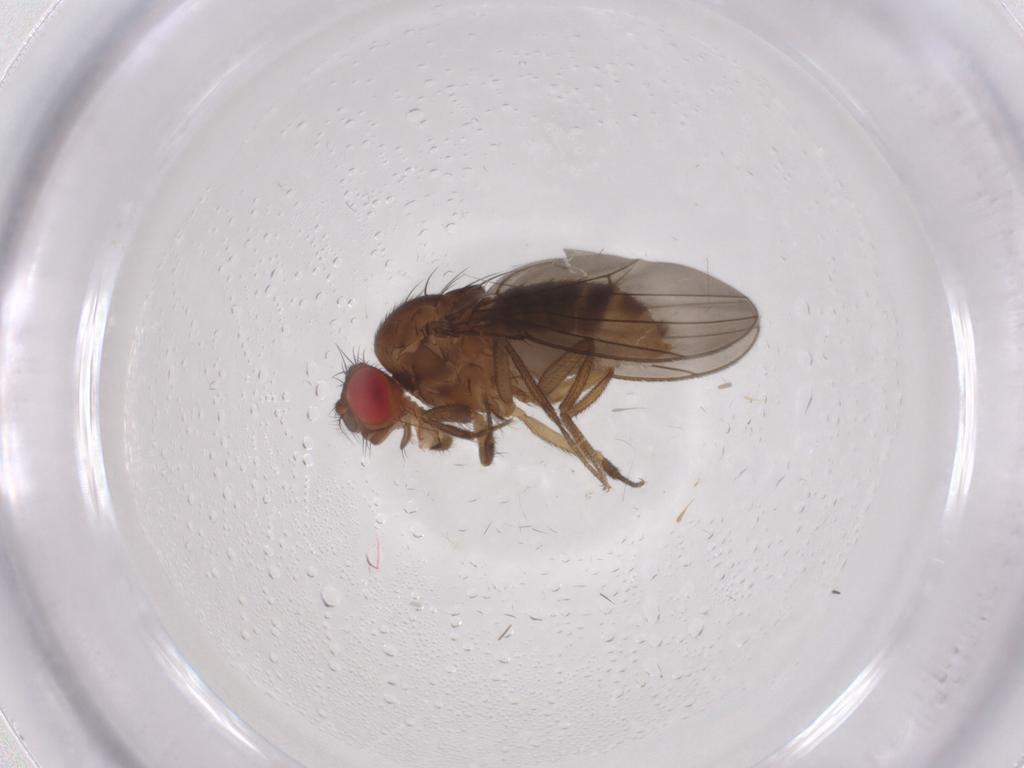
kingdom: Animalia
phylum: Arthropoda
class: Insecta
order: Diptera
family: Drosophilidae
